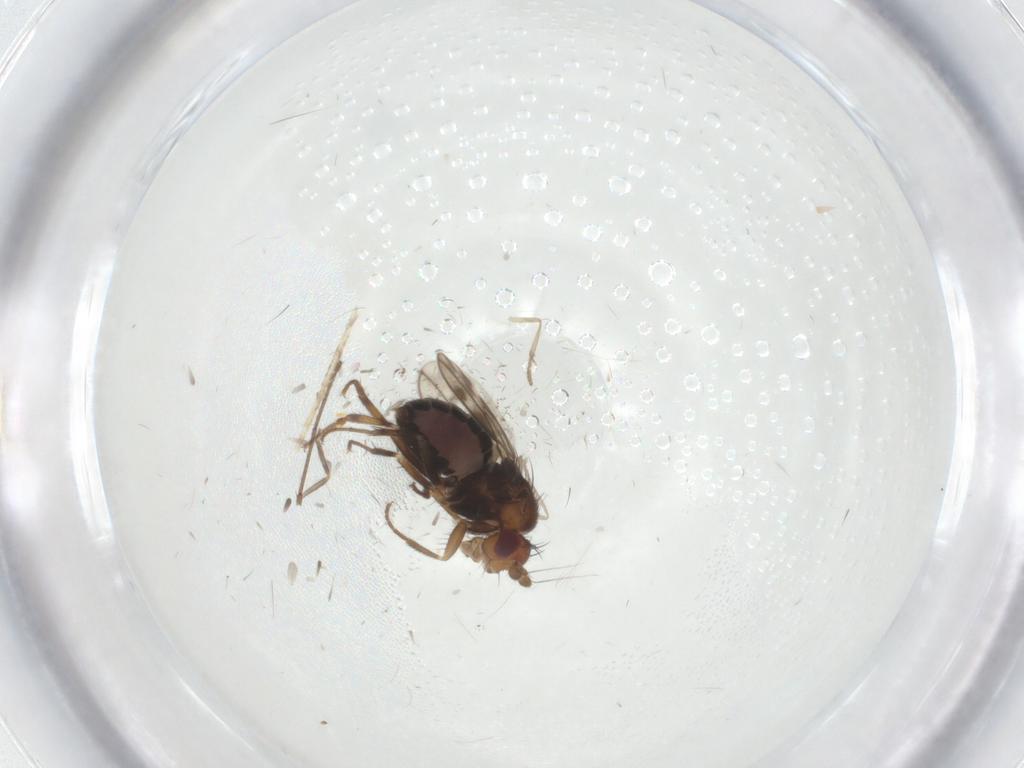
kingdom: Animalia
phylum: Arthropoda
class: Insecta
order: Diptera
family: Sphaeroceridae
